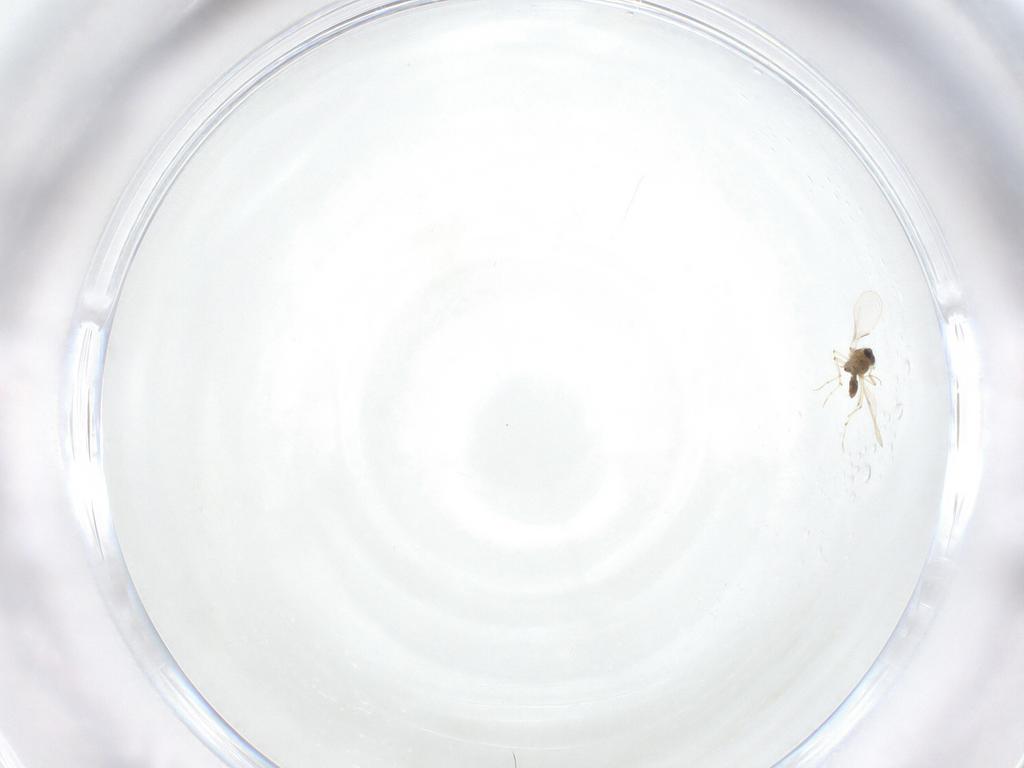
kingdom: Animalia
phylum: Arthropoda
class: Insecta
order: Diptera
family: Chironomidae
